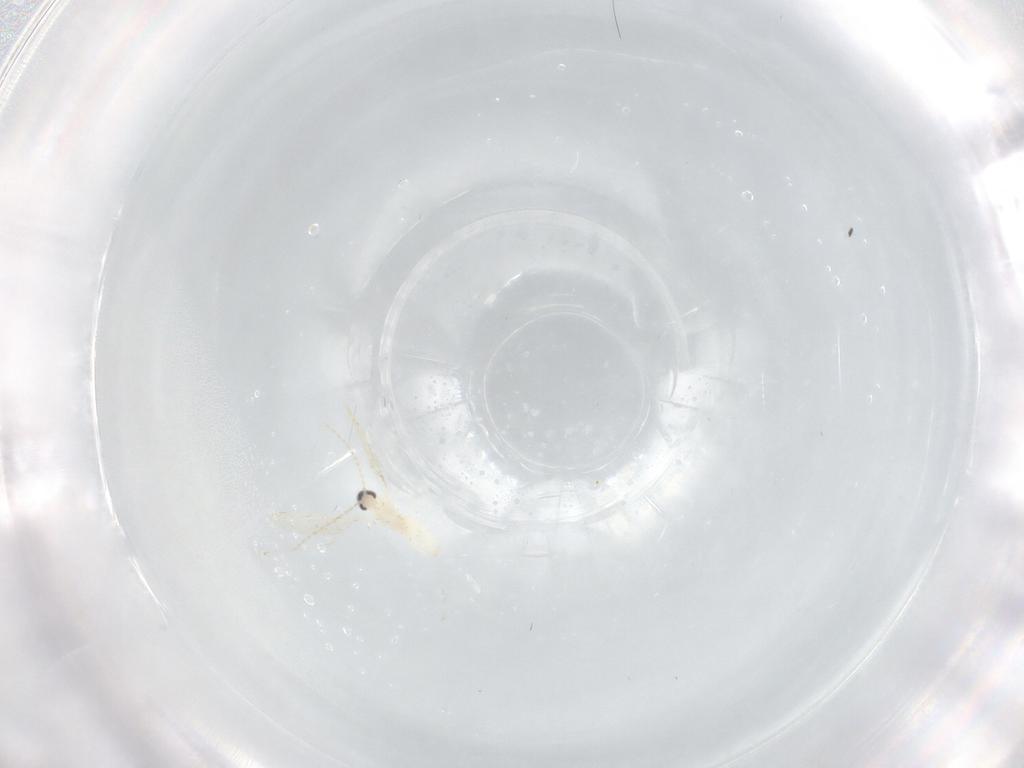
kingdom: Animalia
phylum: Arthropoda
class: Insecta
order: Diptera
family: Cecidomyiidae
